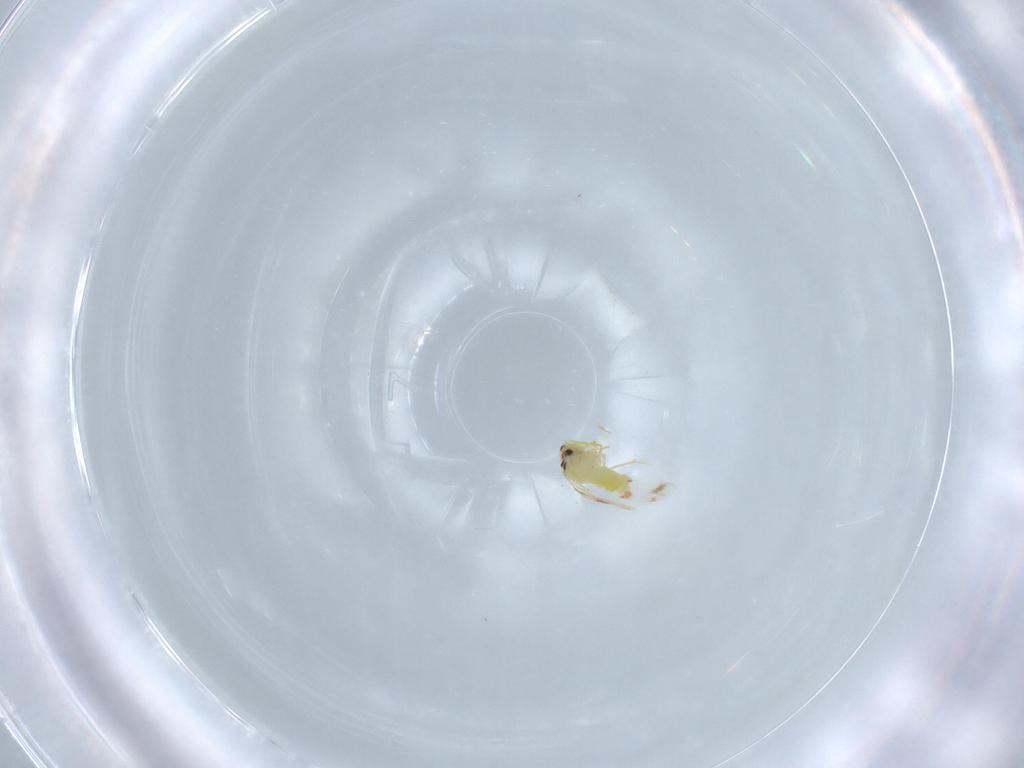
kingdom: Animalia
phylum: Arthropoda
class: Insecta
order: Hemiptera
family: Aleyrodidae
